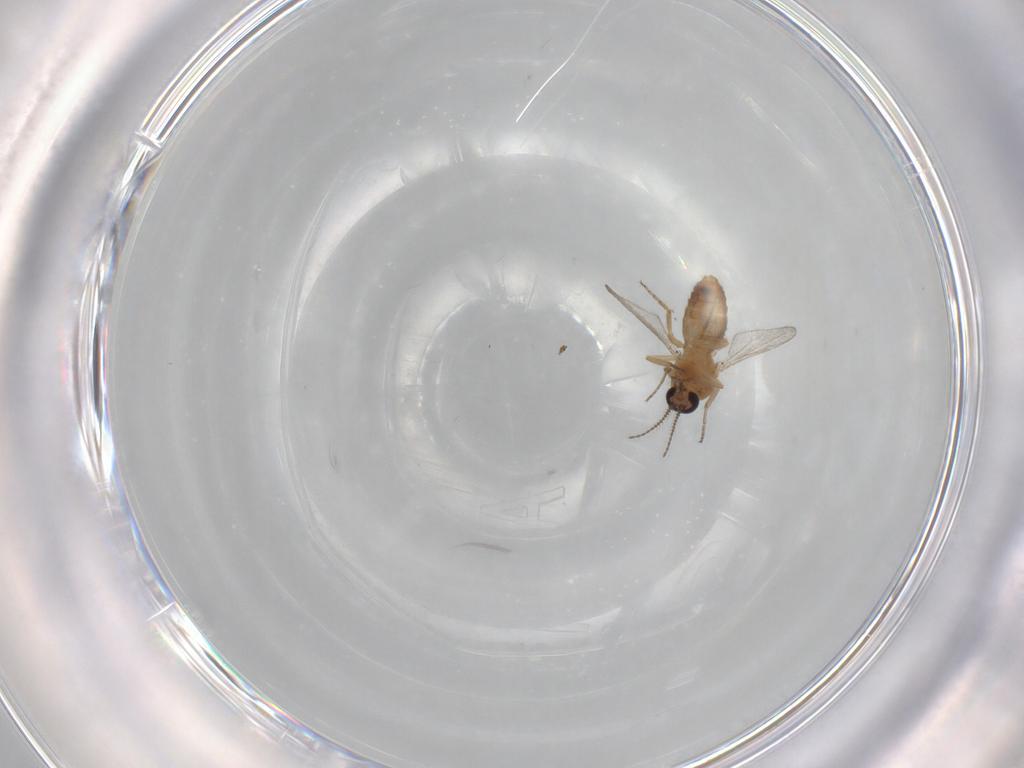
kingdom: Animalia
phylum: Arthropoda
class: Insecta
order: Diptera
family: Ceratopogonidae
